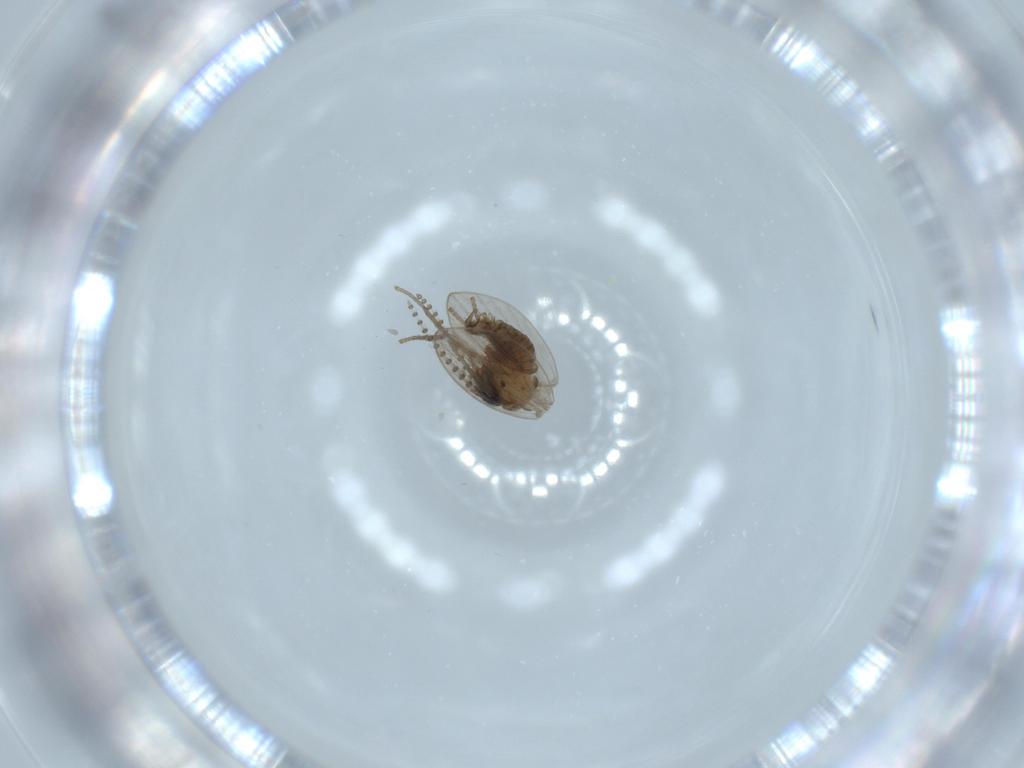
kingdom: Animalia
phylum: Arthropoda
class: Insecta
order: Diptera
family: Psychodidae
